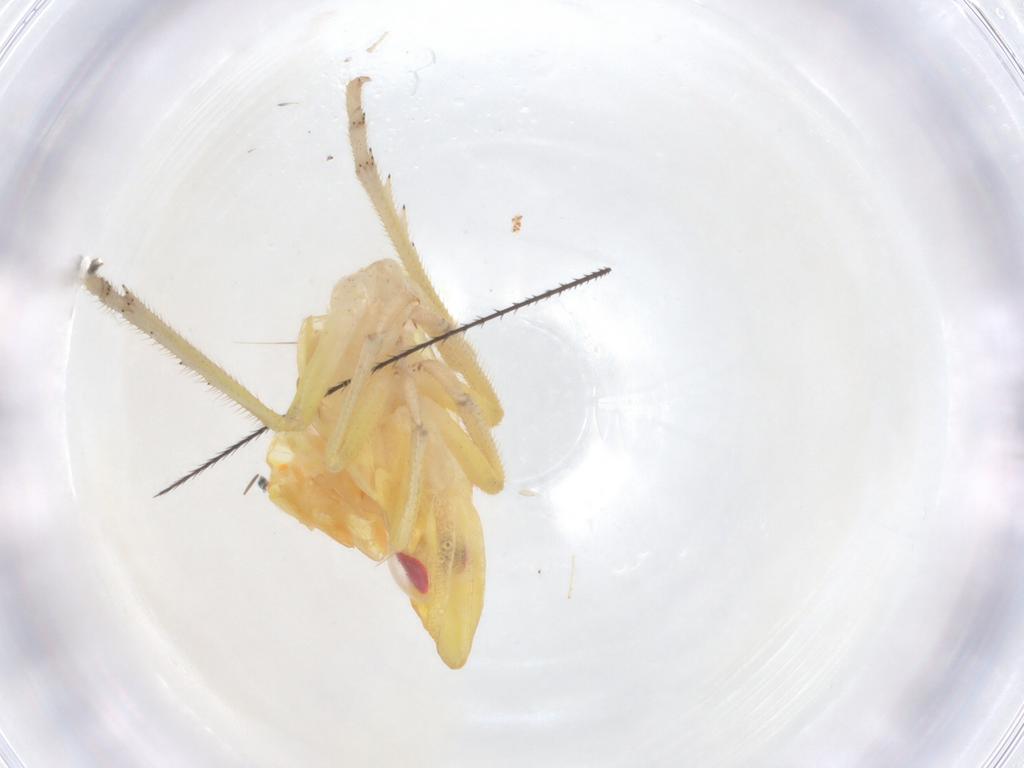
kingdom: Animalia
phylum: Arthropoda
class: Insecta
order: Hemiptera
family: Tropiduchidae
